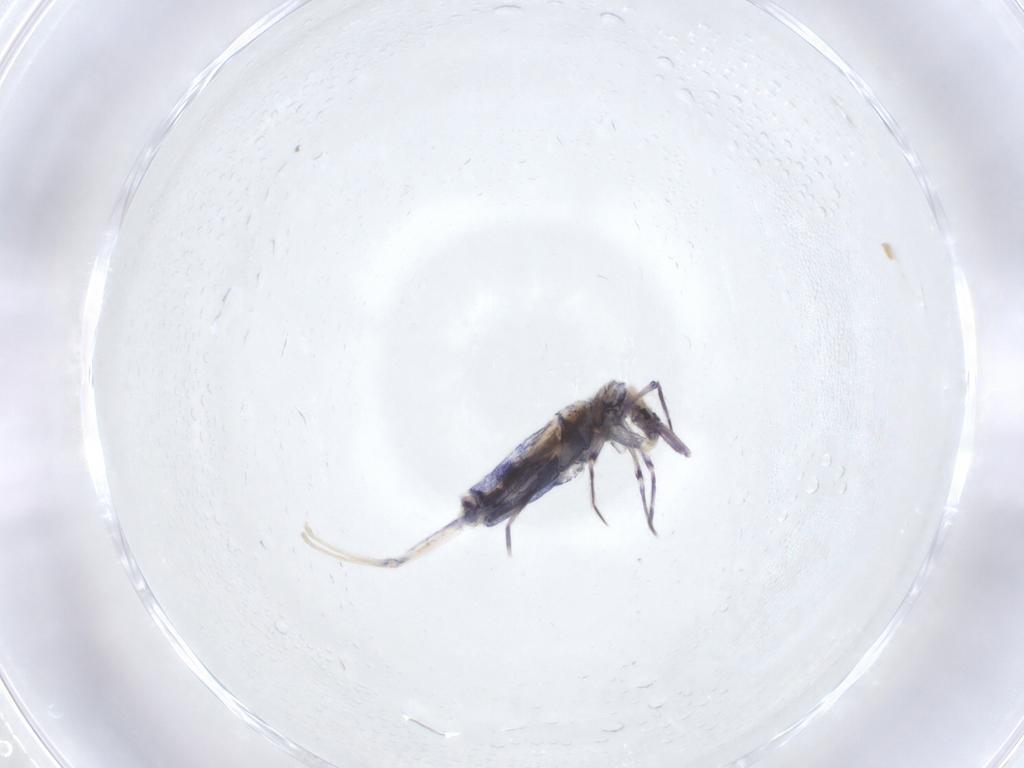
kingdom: Animalia
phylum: Arthropoda
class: Collembola
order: Entomobryomorpha
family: Entomobryidae
